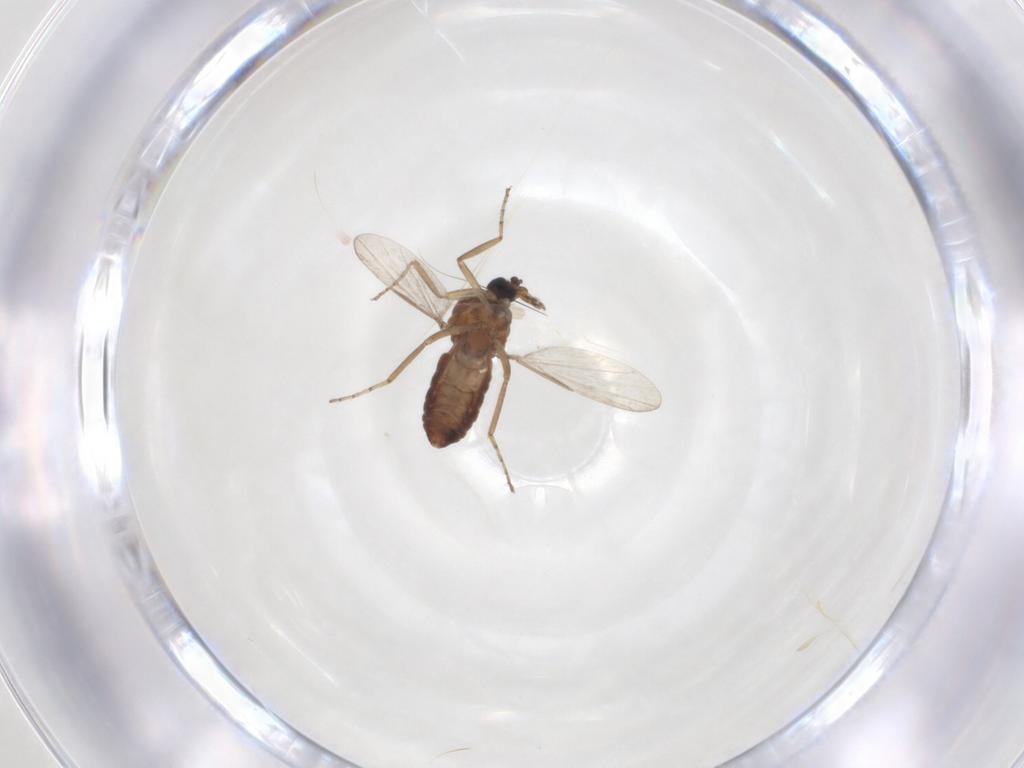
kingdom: Animalia
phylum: Arthropoda
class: Insecta
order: Diptera
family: Ceratopogonidae
